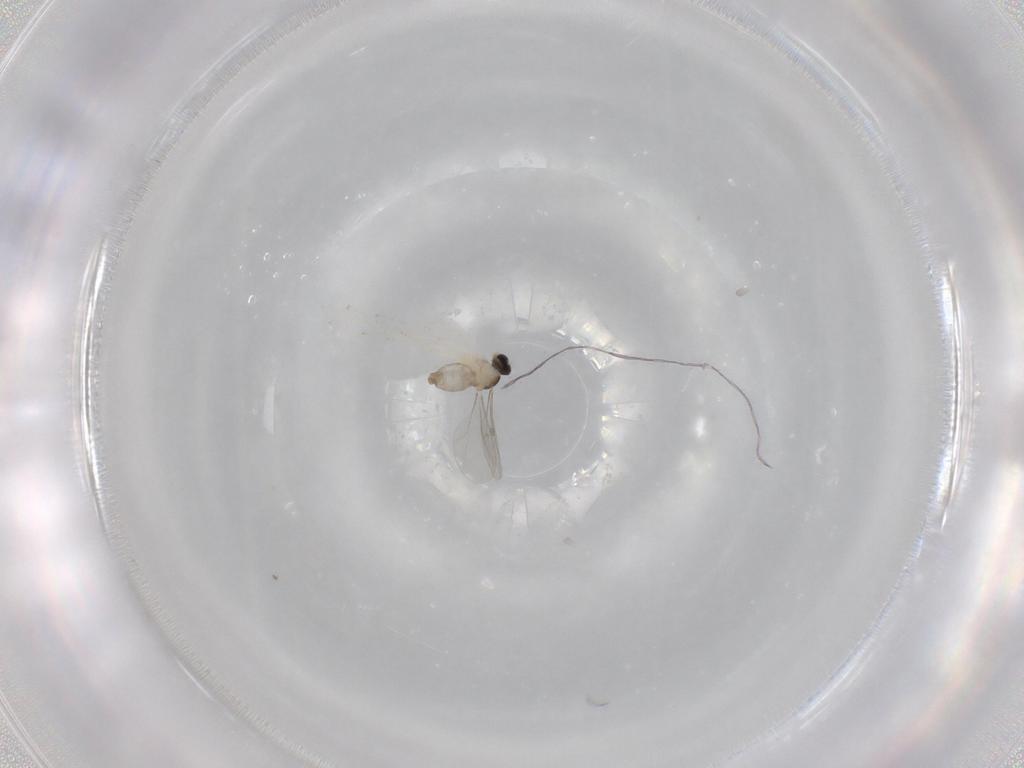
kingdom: Animalia
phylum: Arthropoda
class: Insecta
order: Diptera
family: Cecidomyiidae
